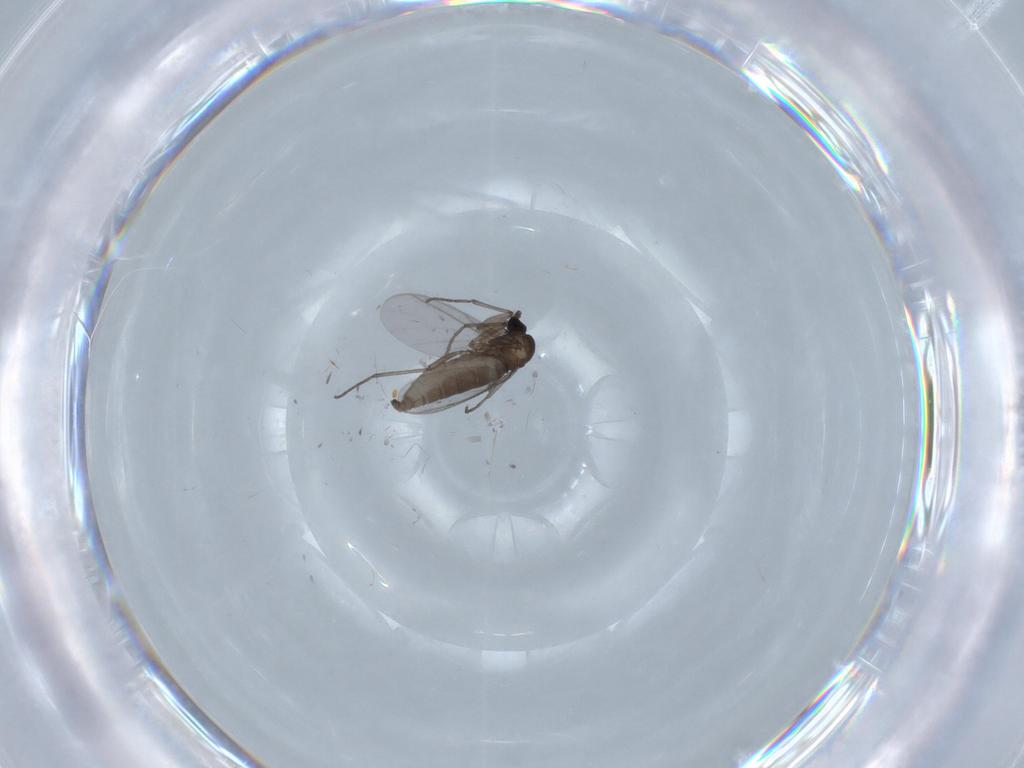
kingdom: Animalia
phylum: Arthropoda
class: Insecta
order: Diptera
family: Sciaridae
